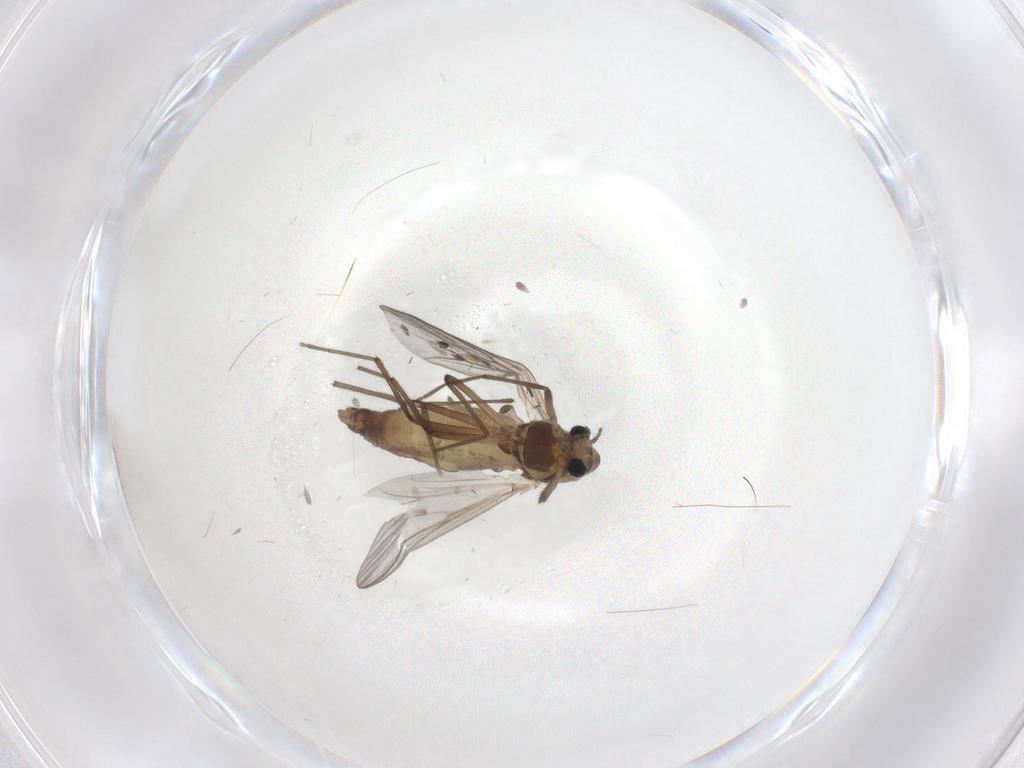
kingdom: Animalia
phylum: Arthropoda
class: Insecta
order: Diptera
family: Chironomidae
